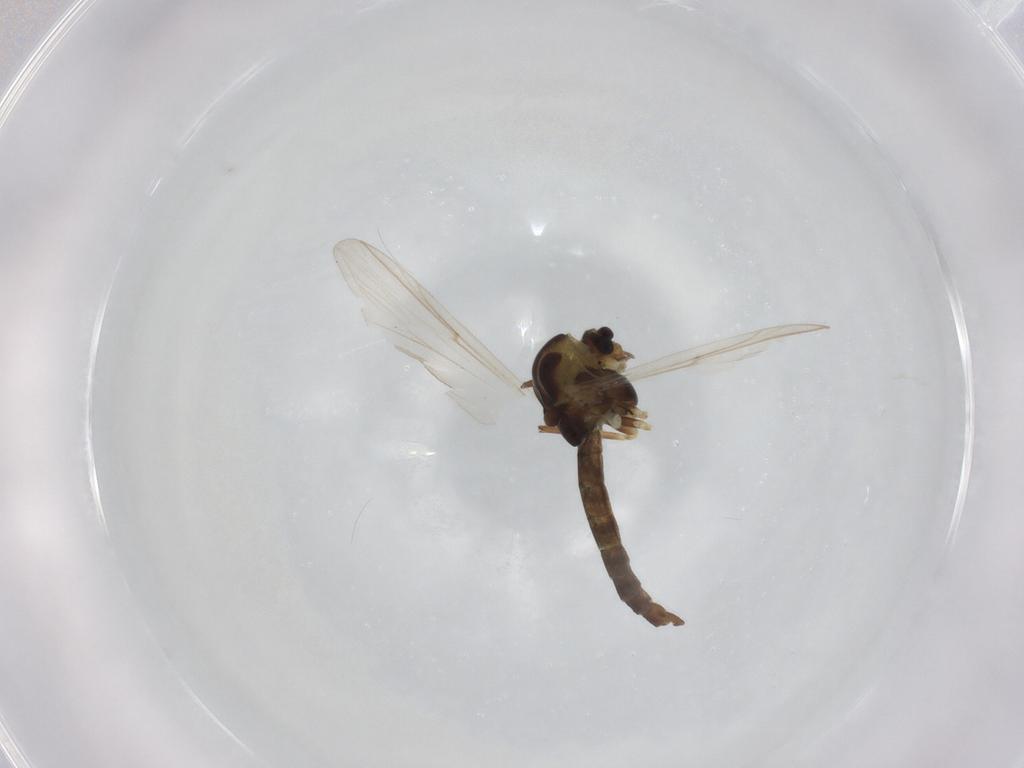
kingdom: Animalia
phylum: Arthropoda
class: Insecta
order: Diptera
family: Chironomidae
